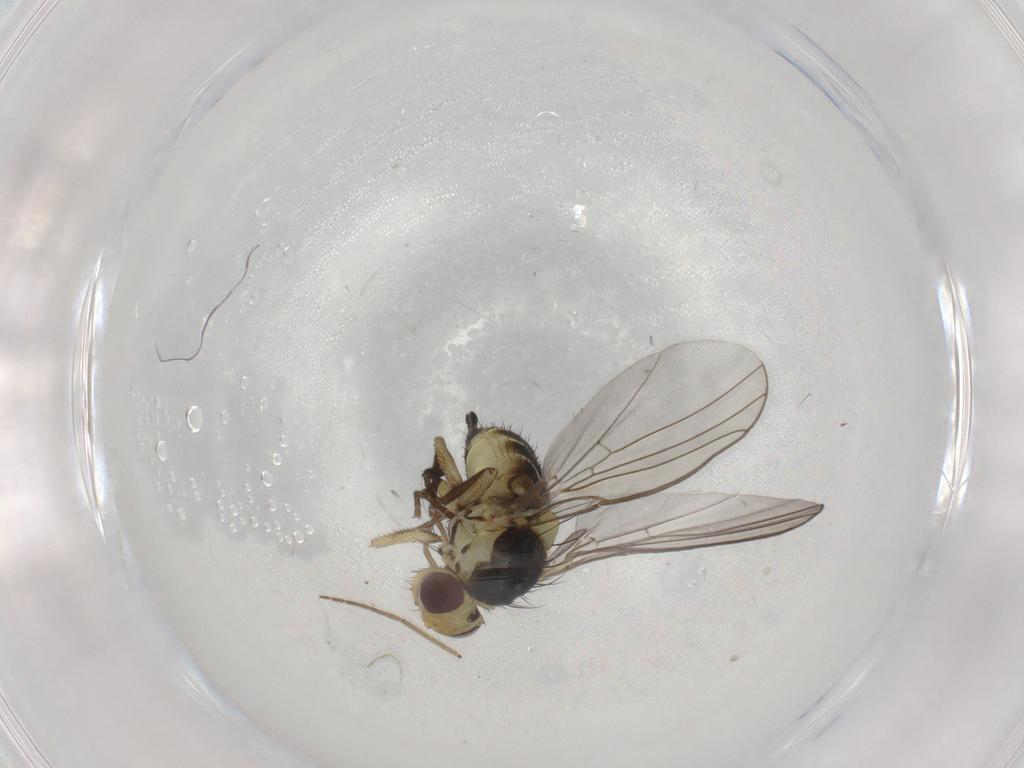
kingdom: Animalia
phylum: Arthropoda
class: Insecta
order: Diptera
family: Agromyzidae
